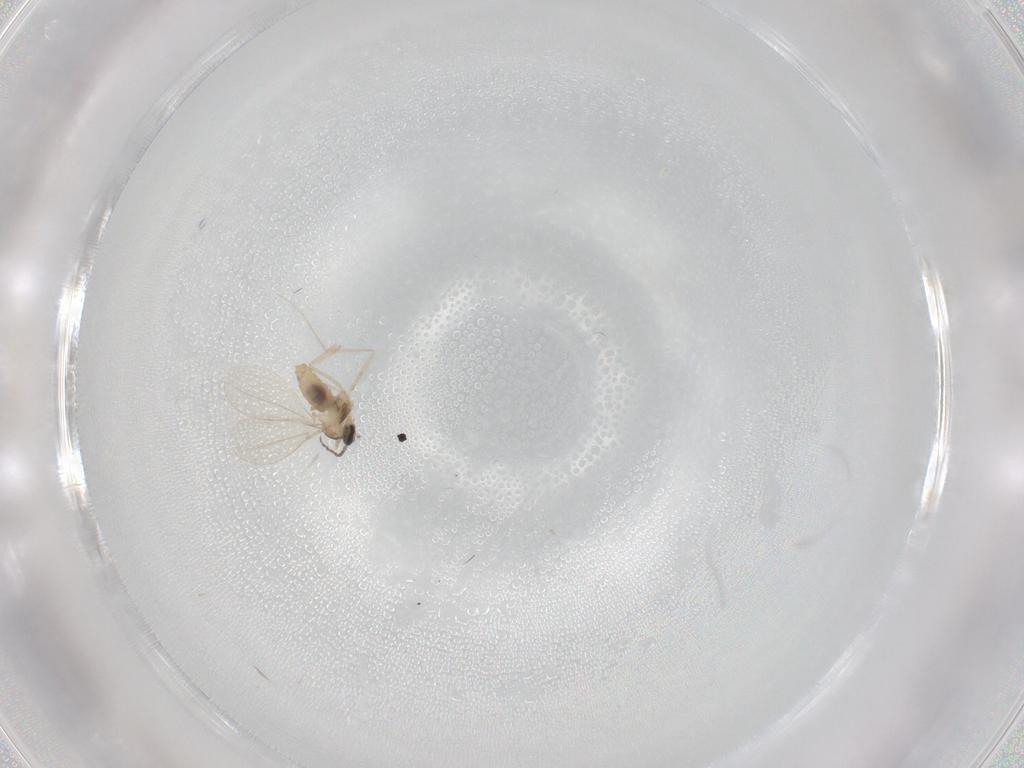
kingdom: Animalia
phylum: Arthropoda
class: Insecta
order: Diptera
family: Cecidomyiidae
